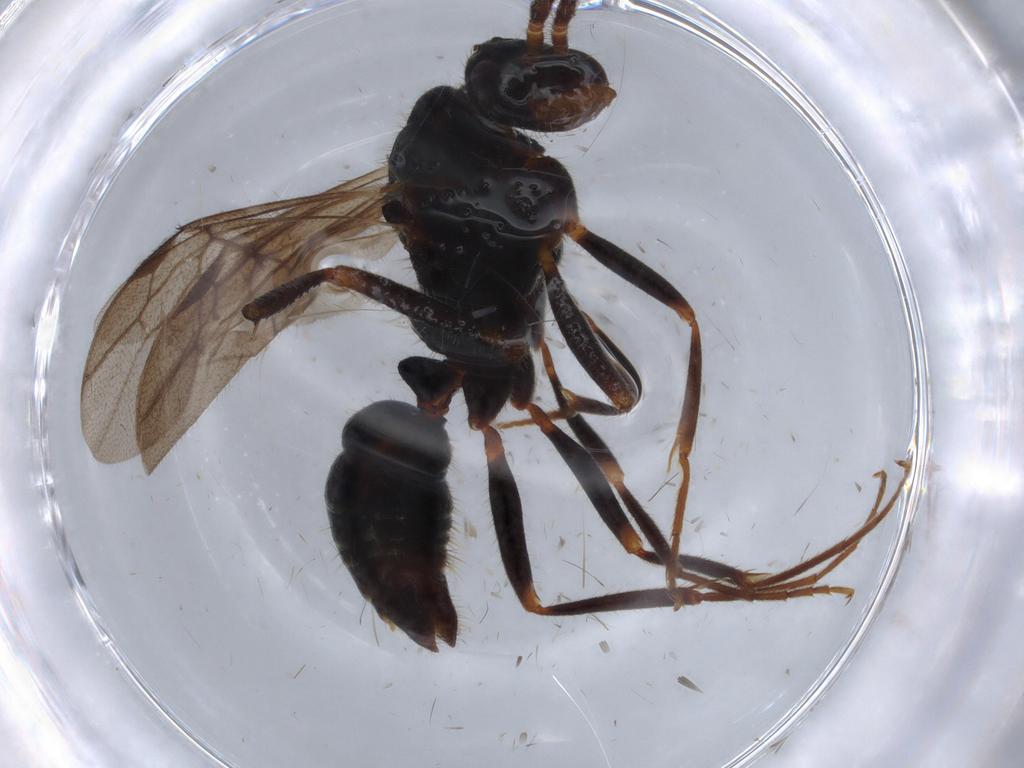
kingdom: Animalia
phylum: Arthropoda
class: Insecta
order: Hymenoptera
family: Formicidae
